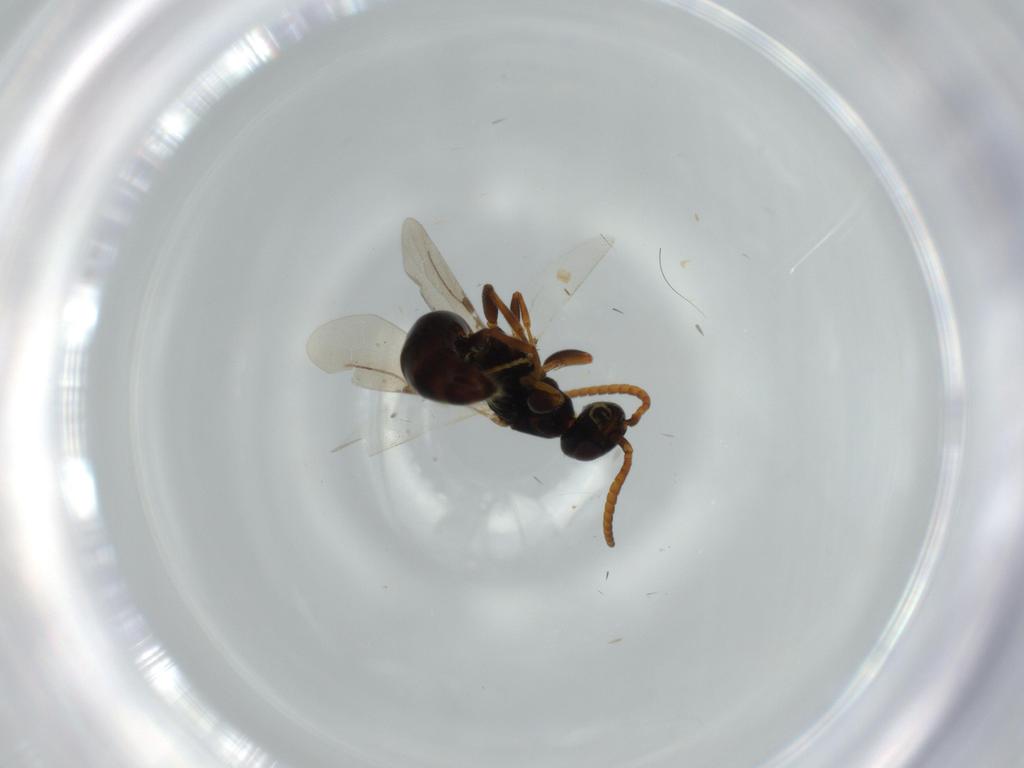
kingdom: Animalia
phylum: Arthropoda
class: Insecta
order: Hymenoptera
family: Bethylidae
